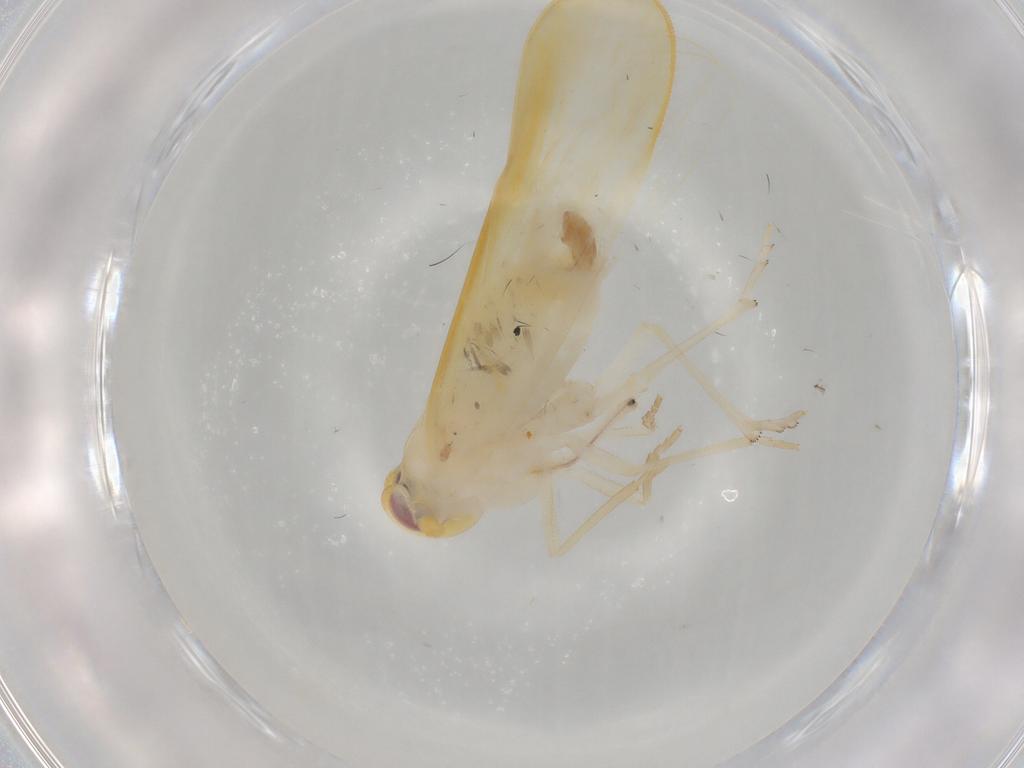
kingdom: Animalia
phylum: Arthropoda
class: Insecta
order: Hemiptera
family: Derbidae
